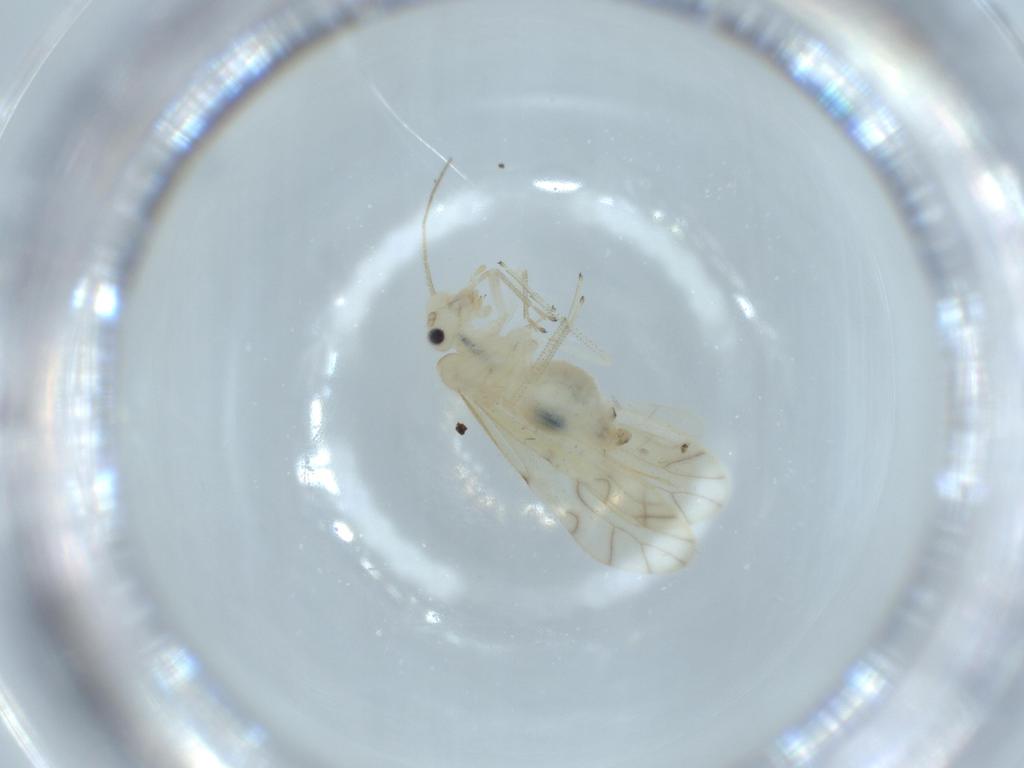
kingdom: Animalia
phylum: Arthropoda
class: Insecta
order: Psocodea
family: Caeciliusidae
